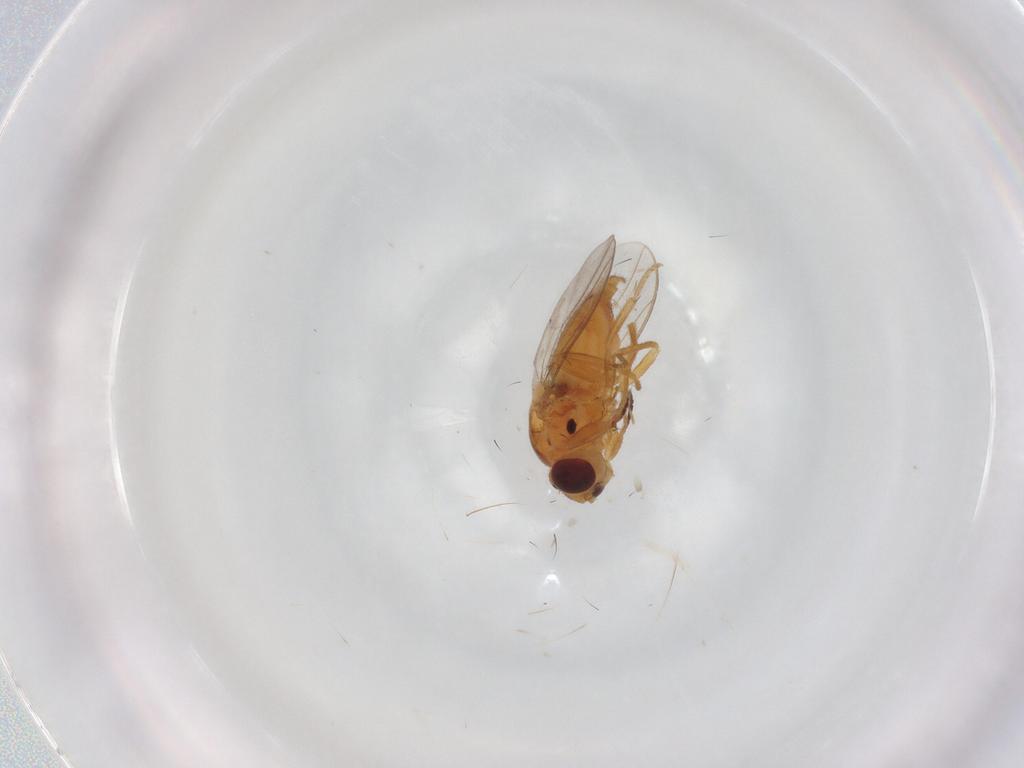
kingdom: Animalia
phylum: Arthropoda
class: Insecta
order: Diptera
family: Chloropidae
